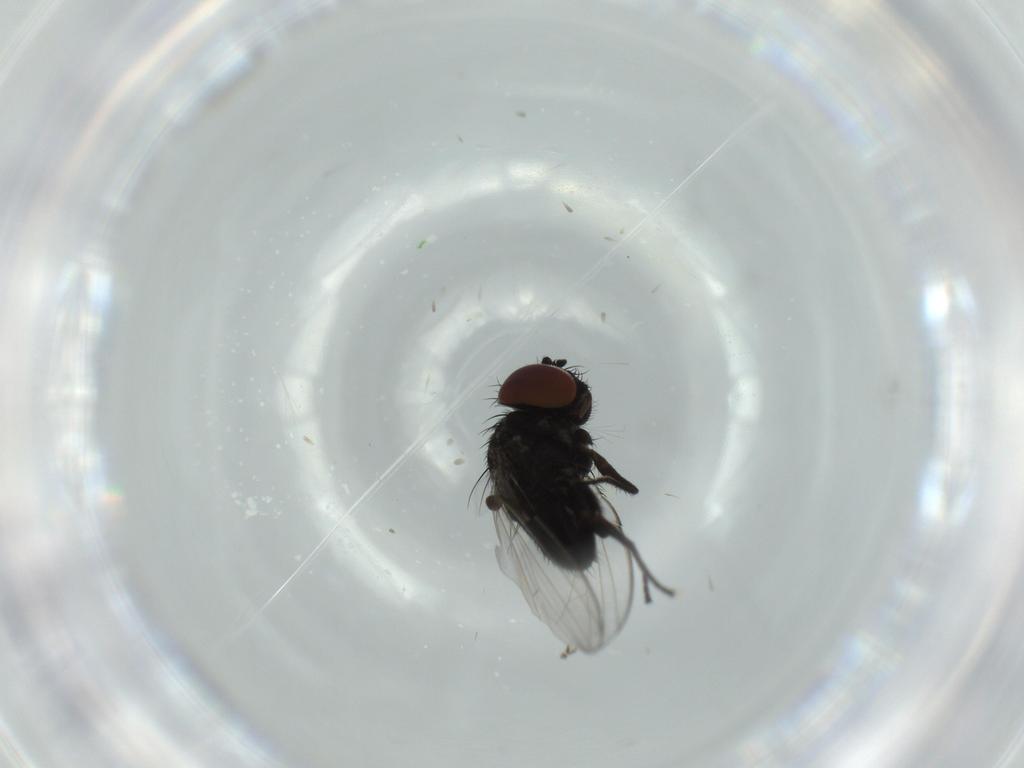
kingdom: Animalia
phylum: Arthropoda
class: Insecta
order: Diptera
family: Milichiidae
